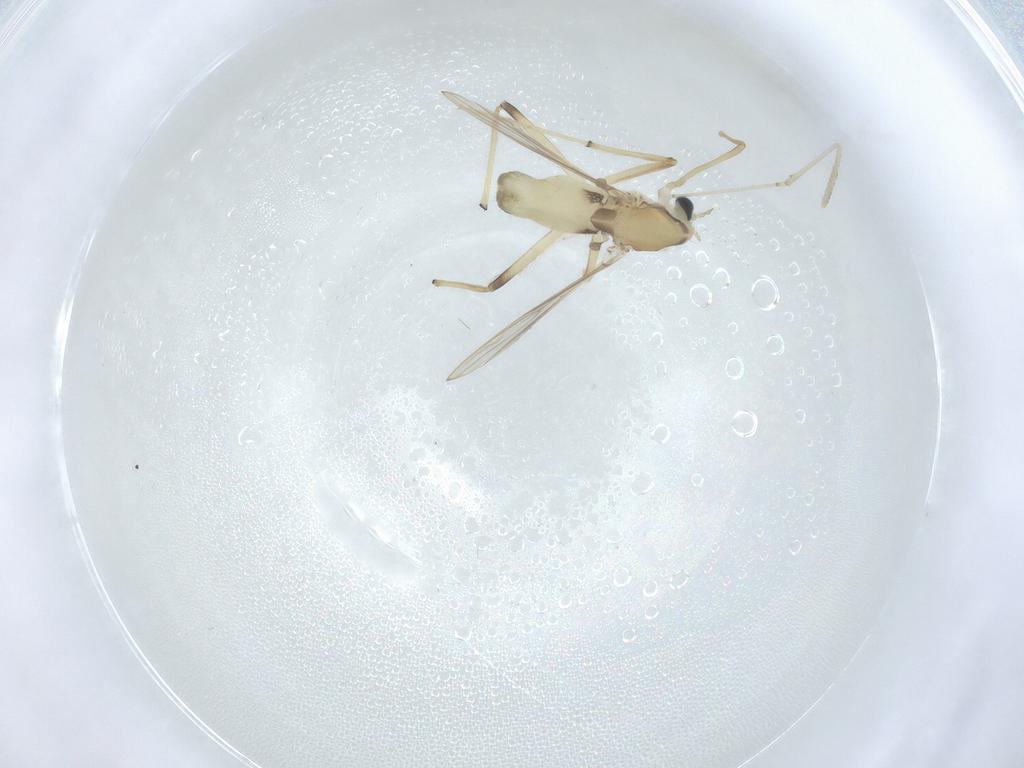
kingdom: Animalia
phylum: Arthropoda
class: Insecta
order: Diptera
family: Chironomidae
